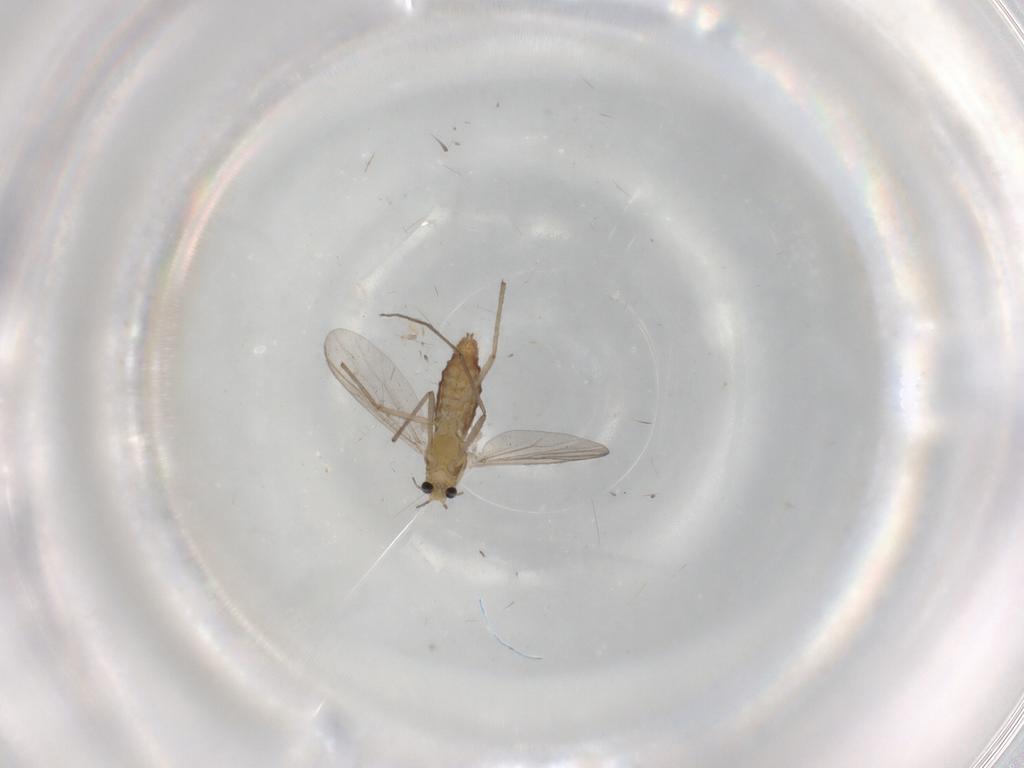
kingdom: Animalia
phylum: Arthropoda
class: Insecta
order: Diptera
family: Chironomidae
